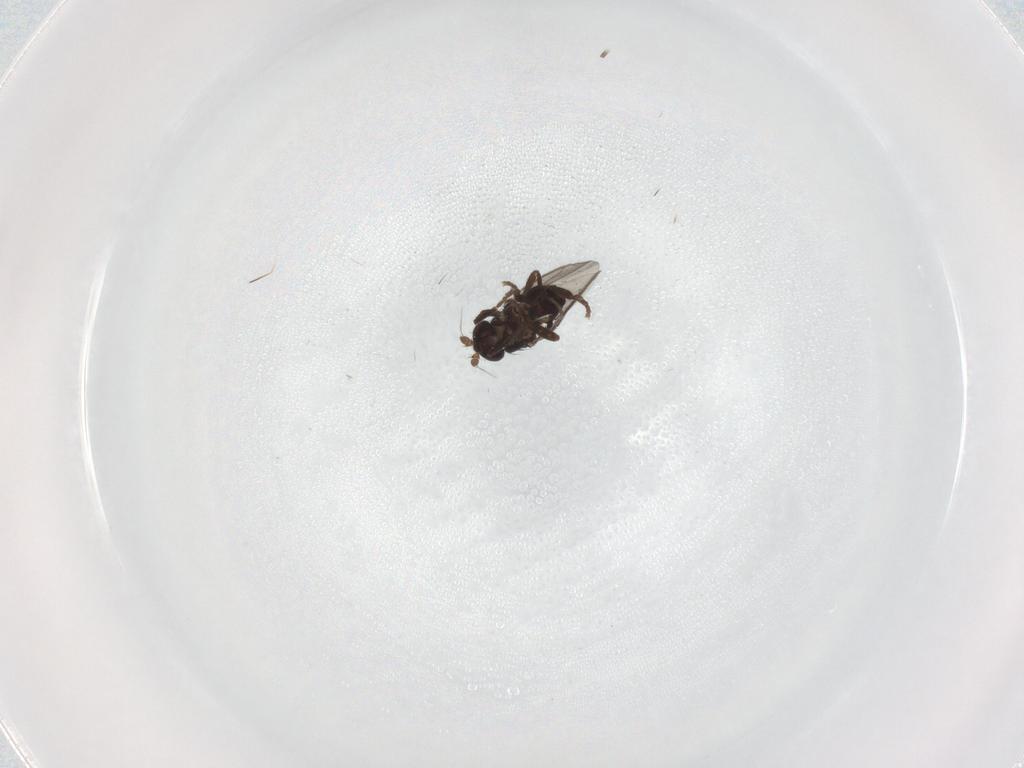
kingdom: Animalia
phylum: Arthropoda
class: Insecta
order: Diptera
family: Sphaeroceridae
